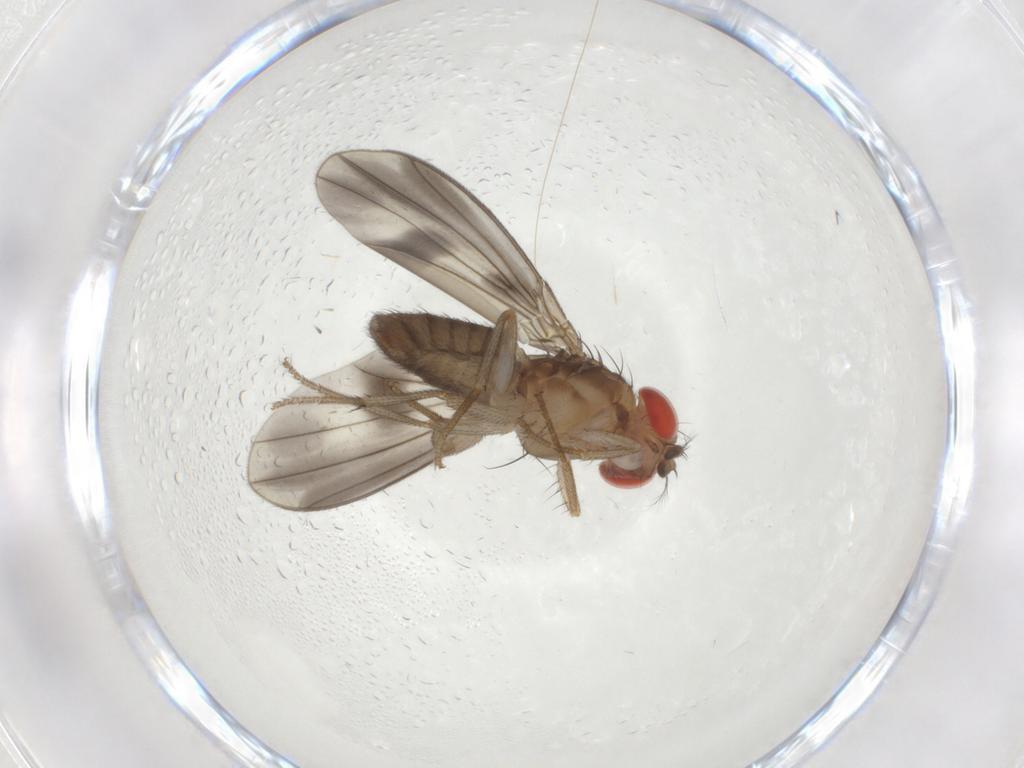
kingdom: Animalia
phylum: Arthropoda
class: Insecta
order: Diptera
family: Drosophilidae
